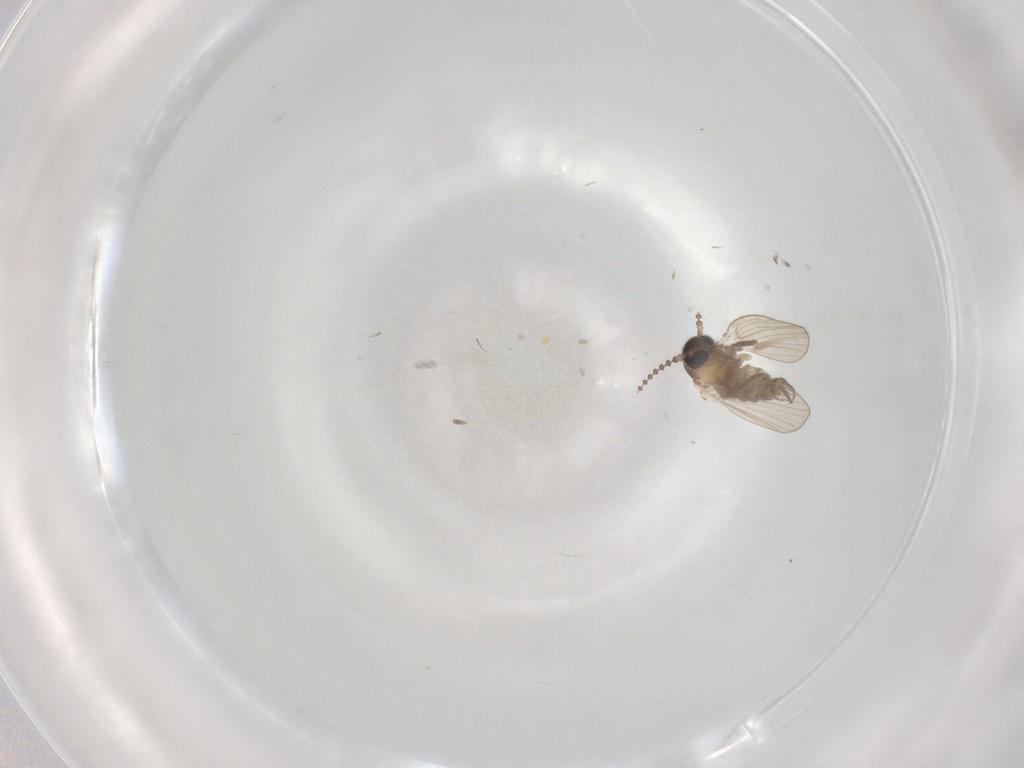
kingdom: Animalia
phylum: Arthropoda
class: Insecta
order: Diptera
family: Psychodidae
